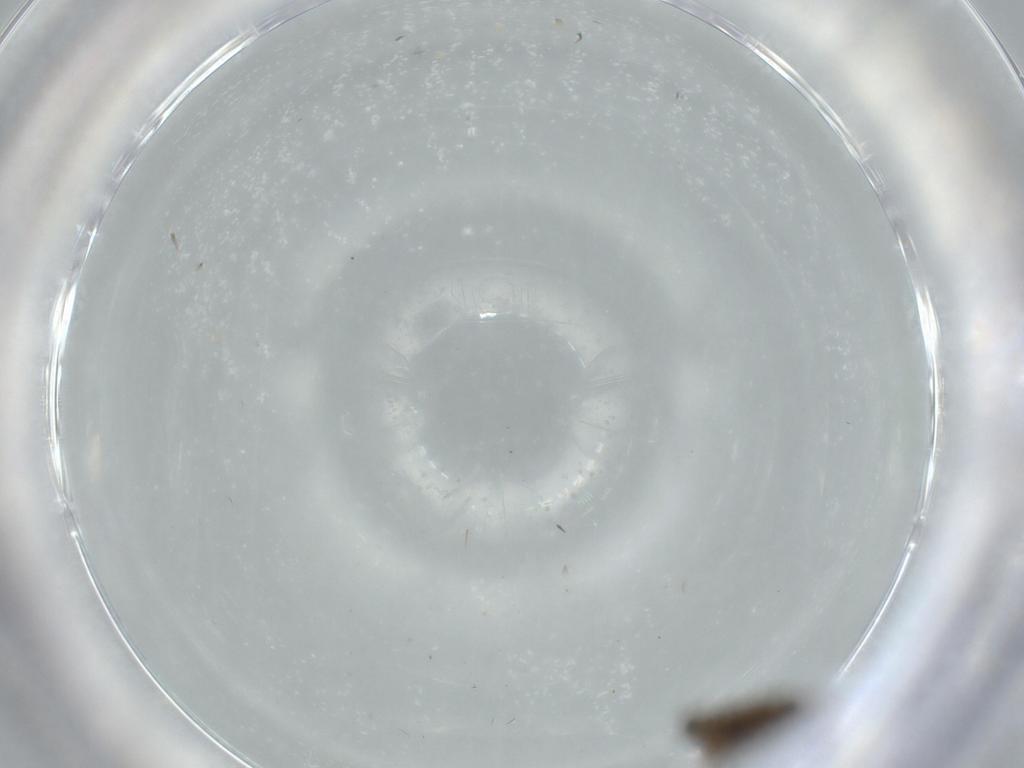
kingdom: Animalia
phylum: Arthropoda
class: Insecta
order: Diptera
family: Psychodidae
